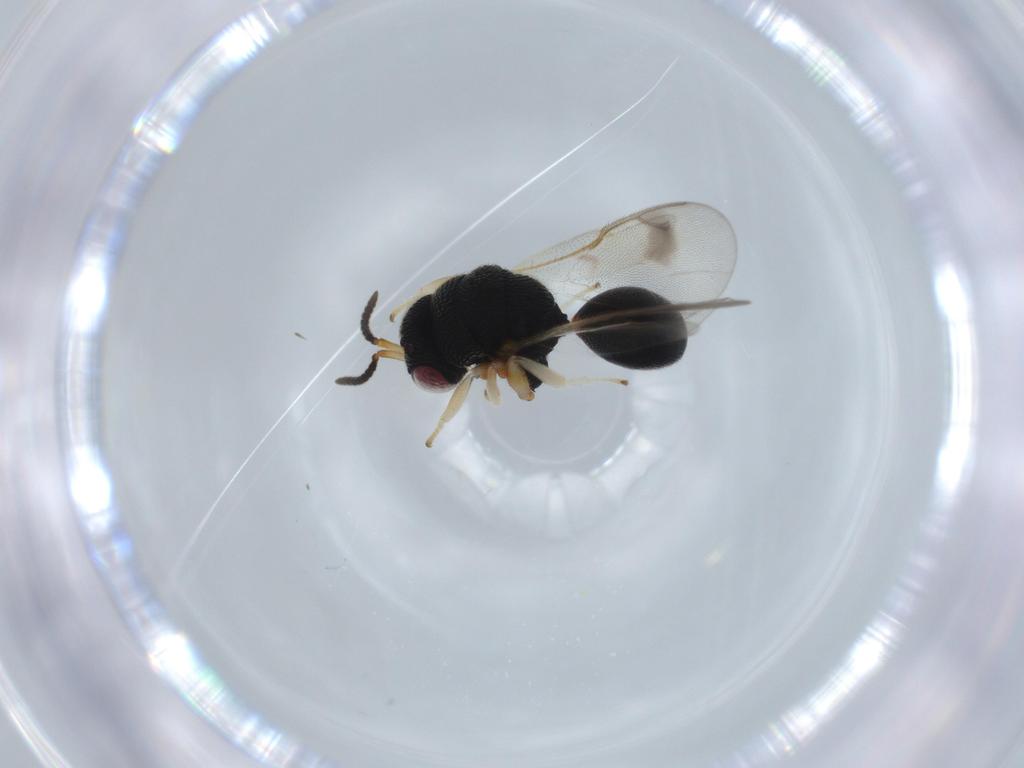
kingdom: Animalia
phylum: Arthropoda
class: Insecta
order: Hymenoptera
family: Eurytomidae
